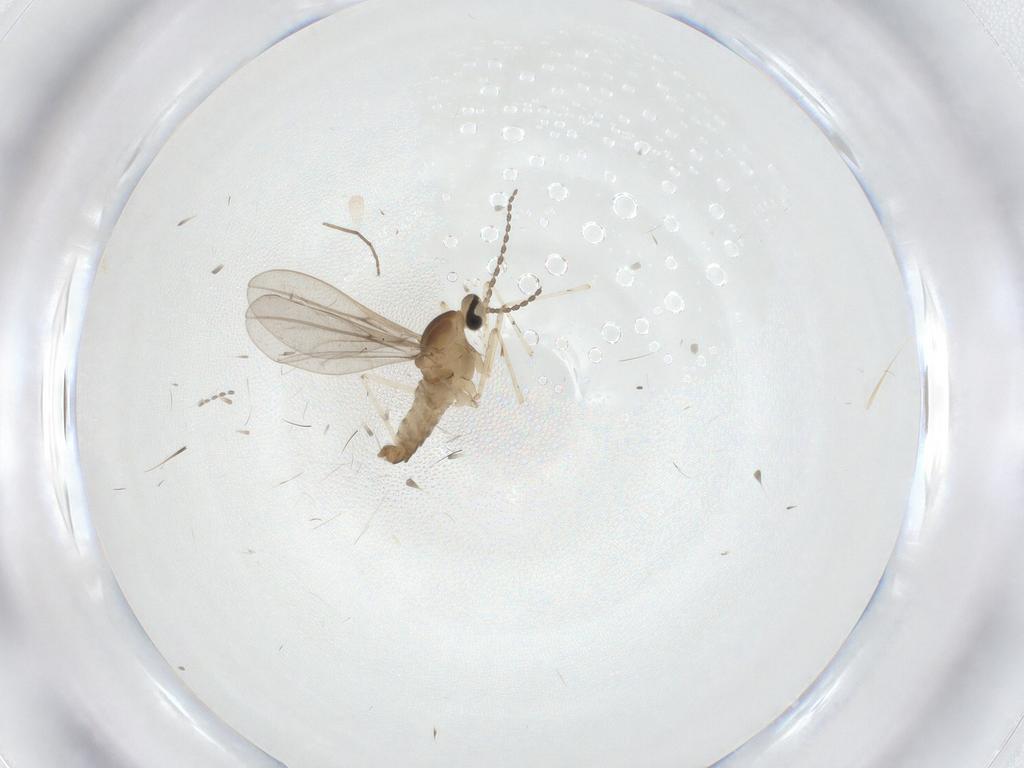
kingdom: Animalia
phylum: Arthropoda
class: Insecta
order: Diptera
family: Chironomidae
